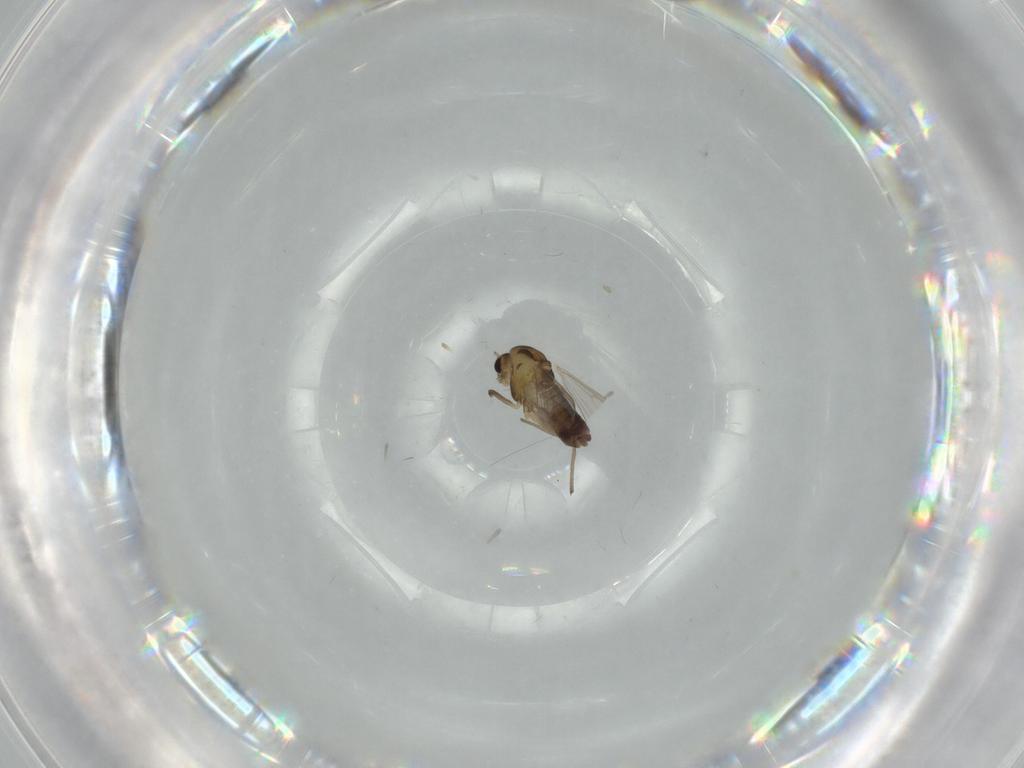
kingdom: Animalia
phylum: Arthropoda
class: Insecta
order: Diptera
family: Chironomidae
